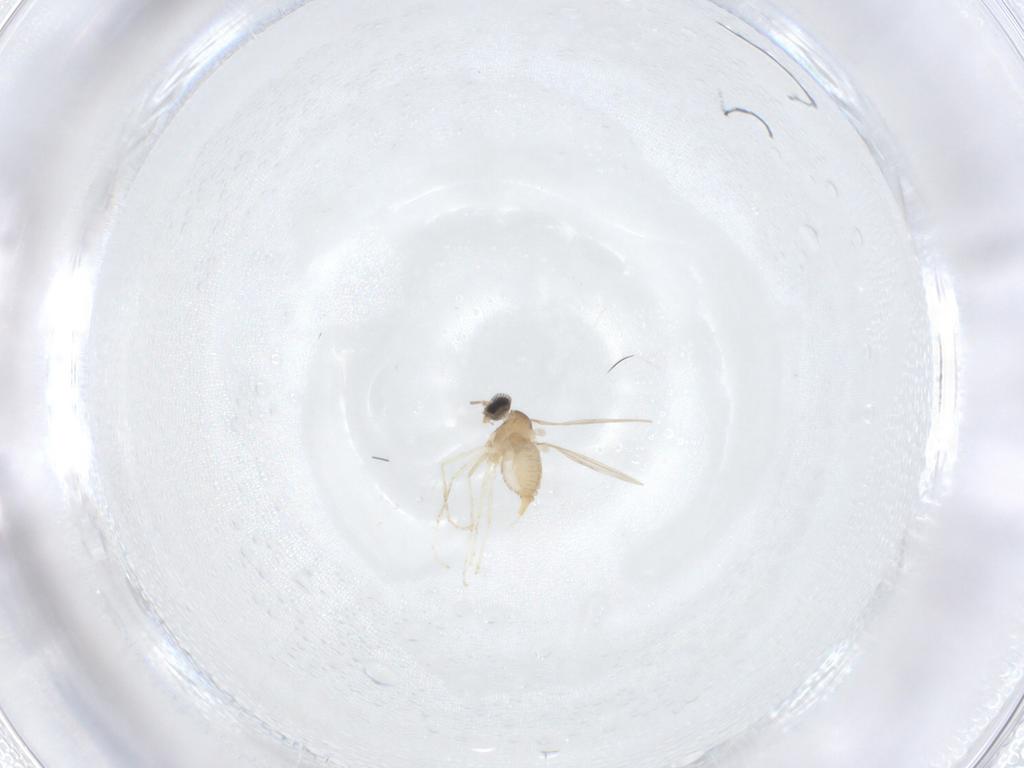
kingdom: Animalia
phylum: Arthropoda
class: Insecta
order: Diptera
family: Cecidomyiidae
